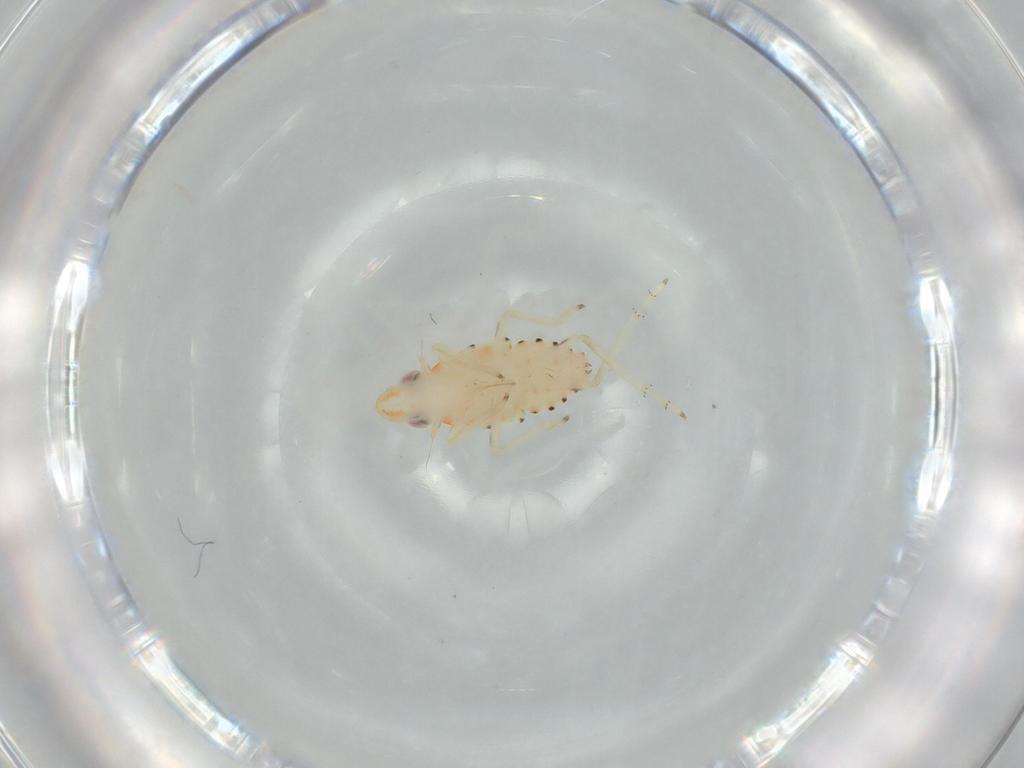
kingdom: Animalia
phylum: Arthropoda
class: Insecta
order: Hemiptera
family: Tropiduchidae
